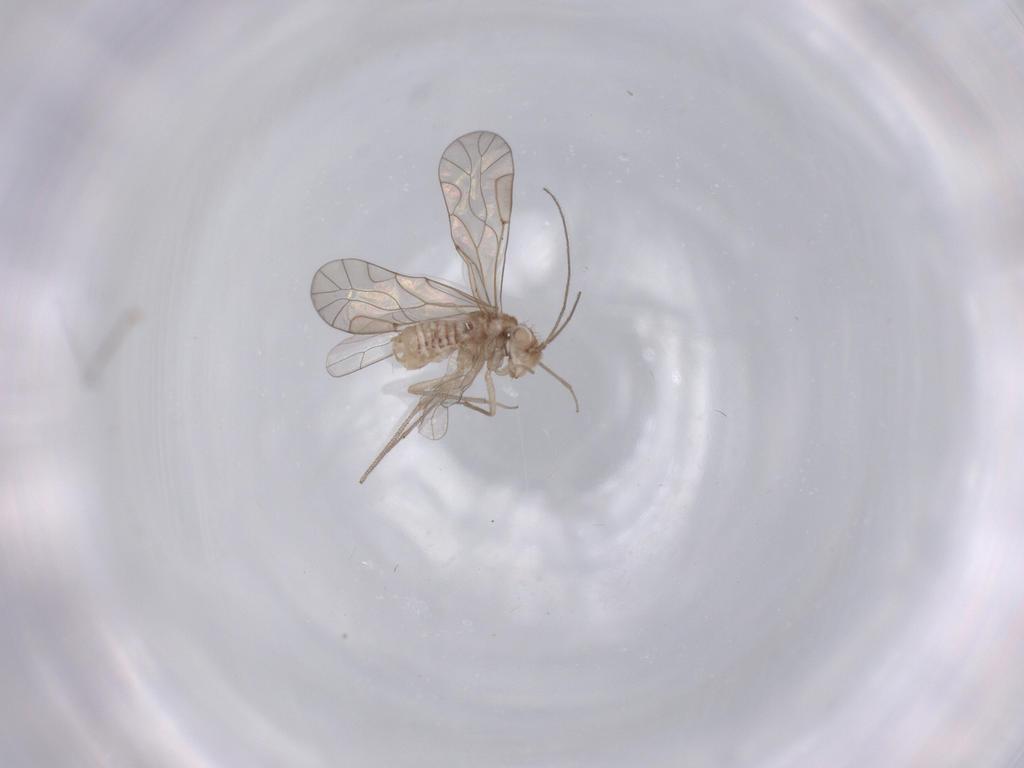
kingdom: Animalia
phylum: Arthropoda
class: Insecta
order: Psocodea
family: Lachesillidae
